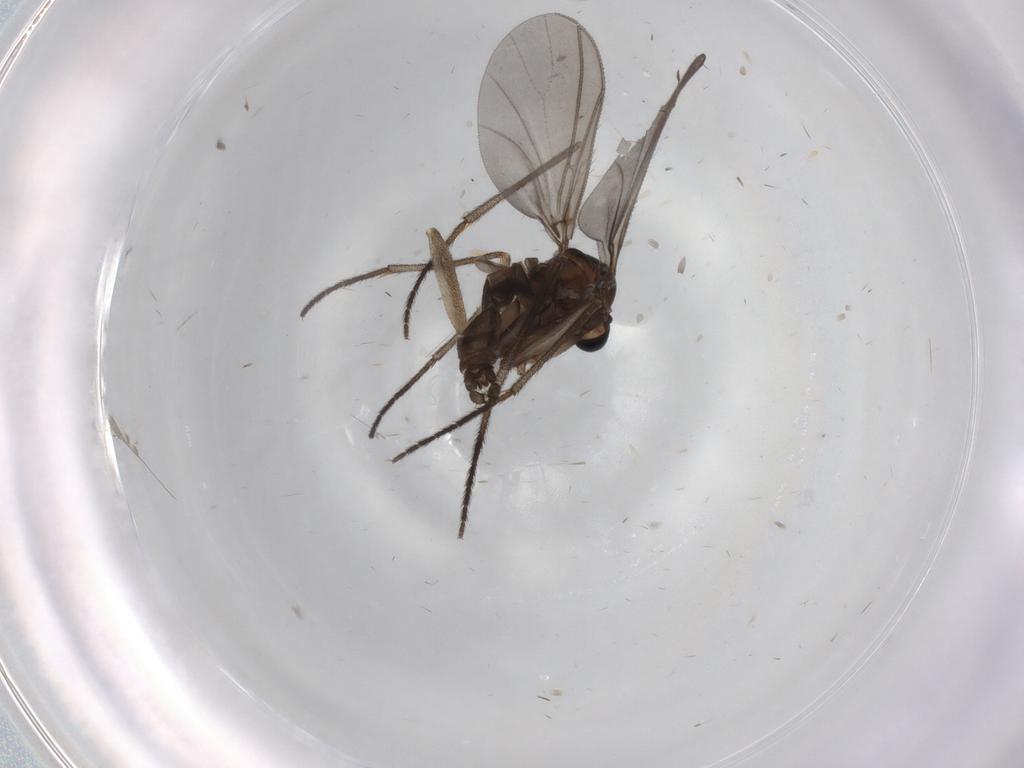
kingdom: Animalia
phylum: Arthropoda
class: Insecta
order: Diptera
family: Cecidomyiidae
